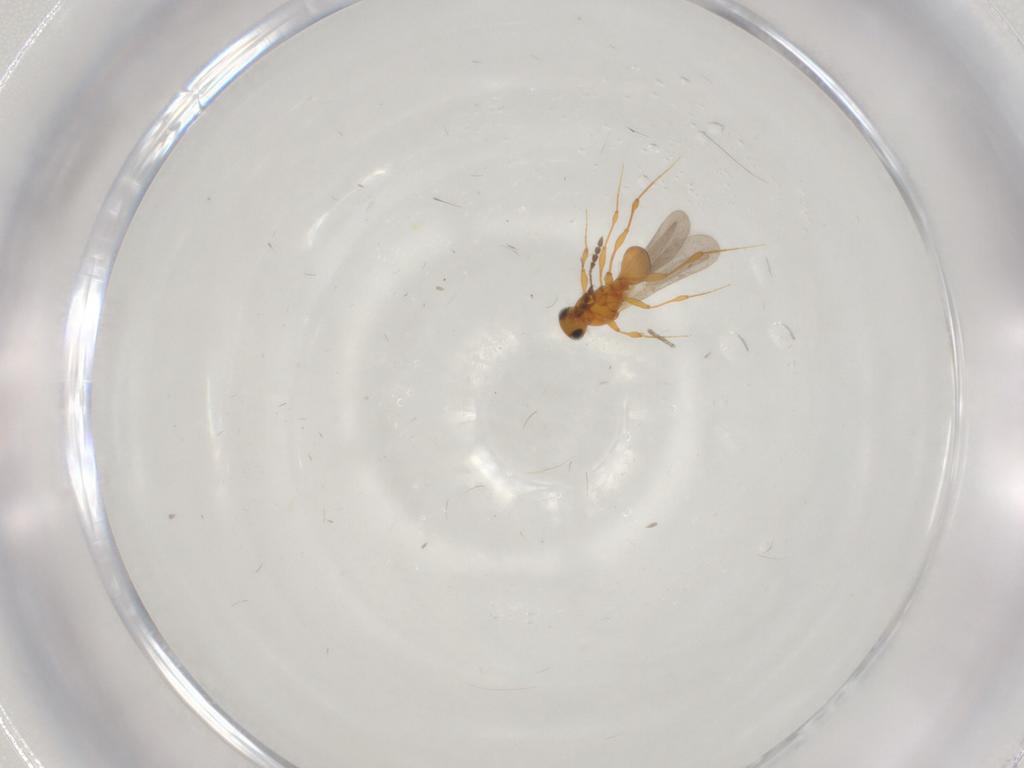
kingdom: Animalia
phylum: Arthropoda
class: Insecta
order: Hymenoptera
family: Platygastridae
